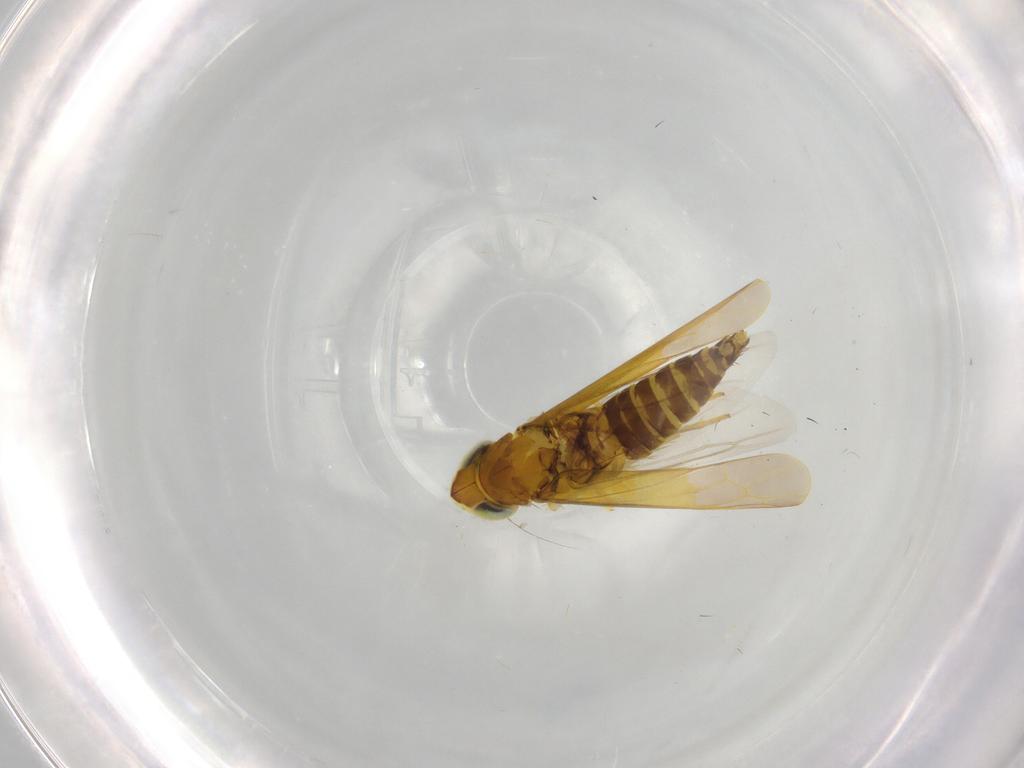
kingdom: Animalia
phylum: Arthropoda
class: Insecta
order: Hemiptera
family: Cicadellidae
